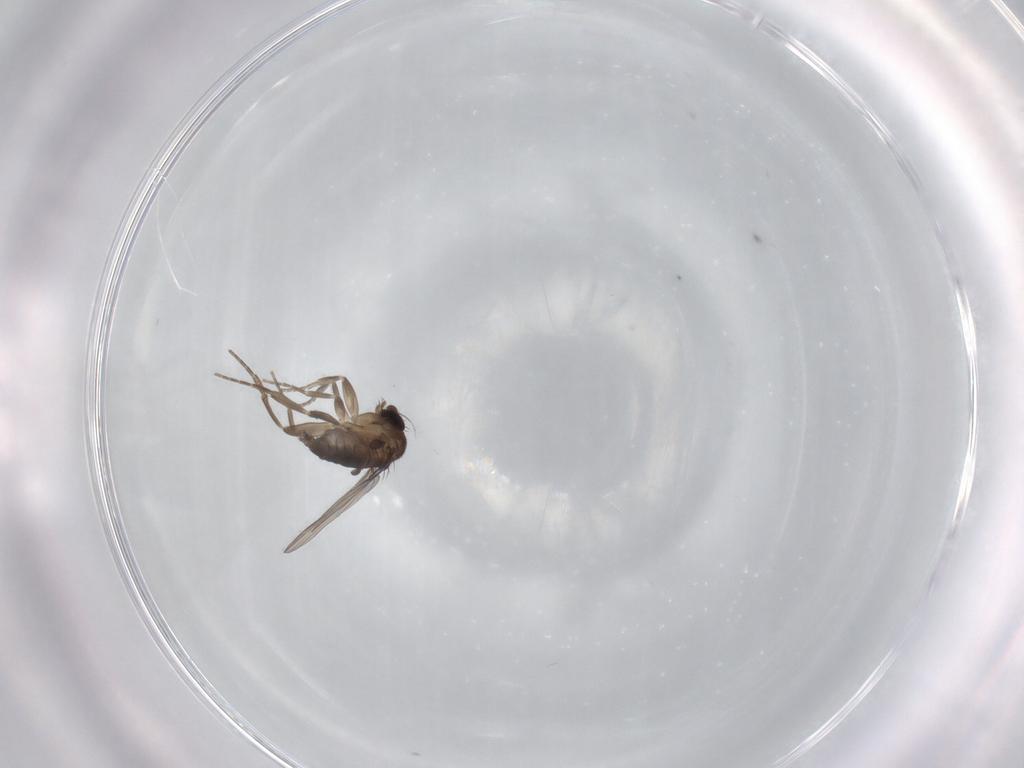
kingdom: Animalia
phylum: Arthropoda
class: Insecta
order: Diptera
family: Phoridae
